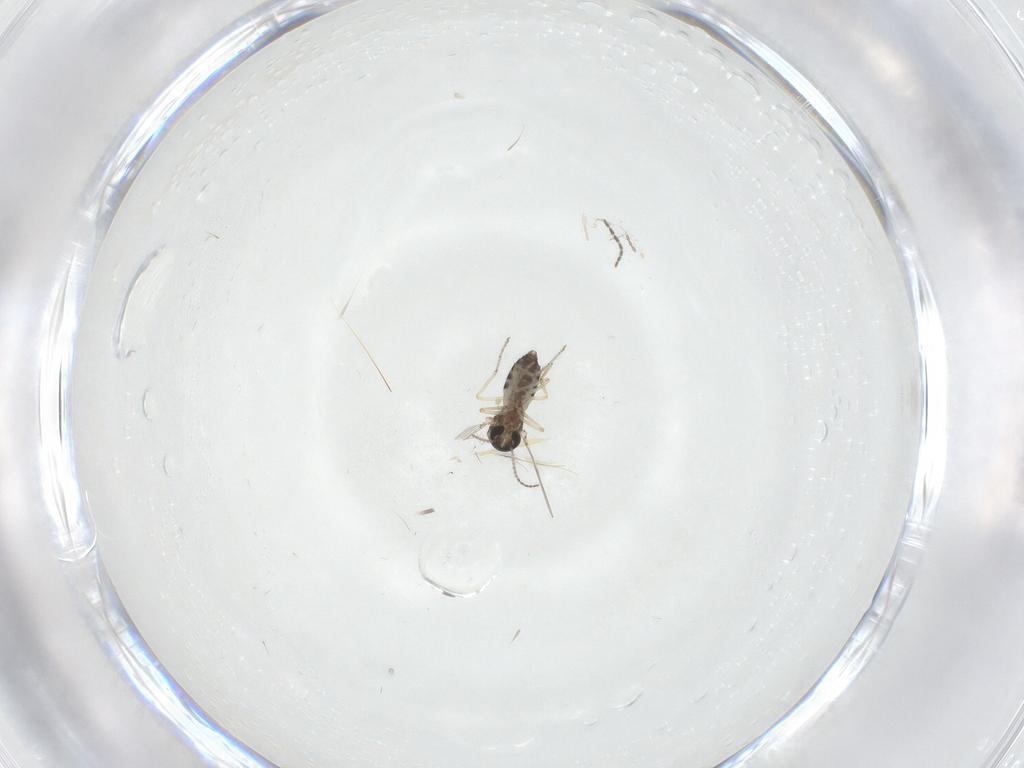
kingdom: Animalia
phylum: Arthropoda
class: Insecta
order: Diptera
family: Ceratopogonidae
